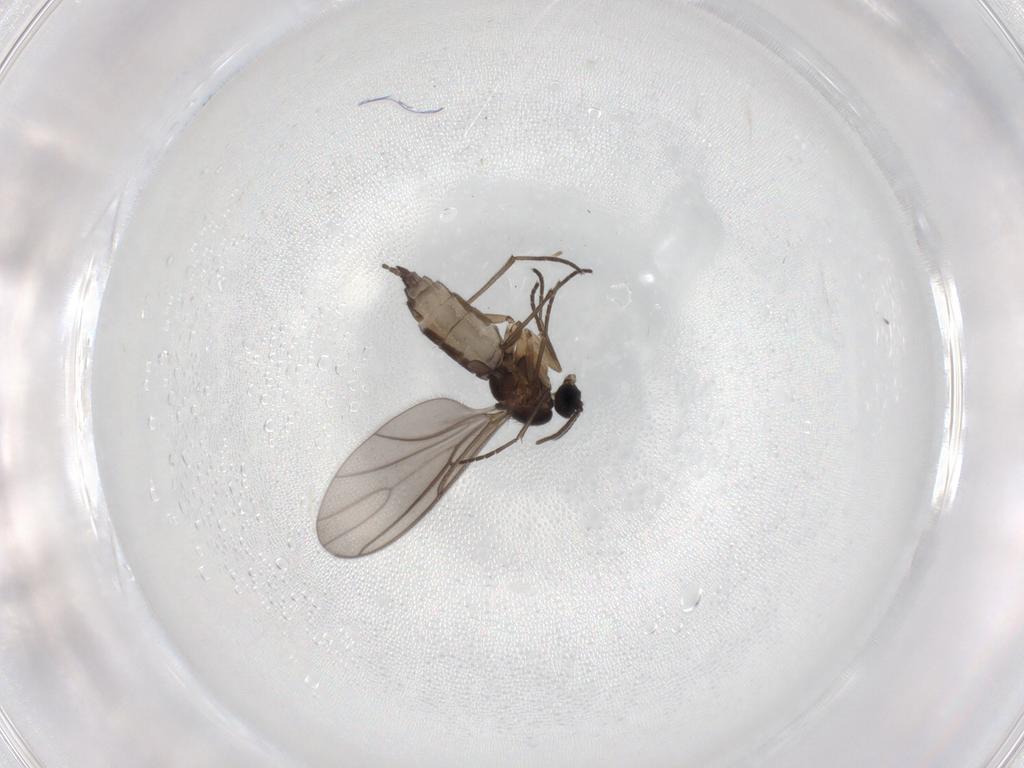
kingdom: Animalia
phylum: Arthropoda
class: Insecta
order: Diptera
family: Sciaridae
